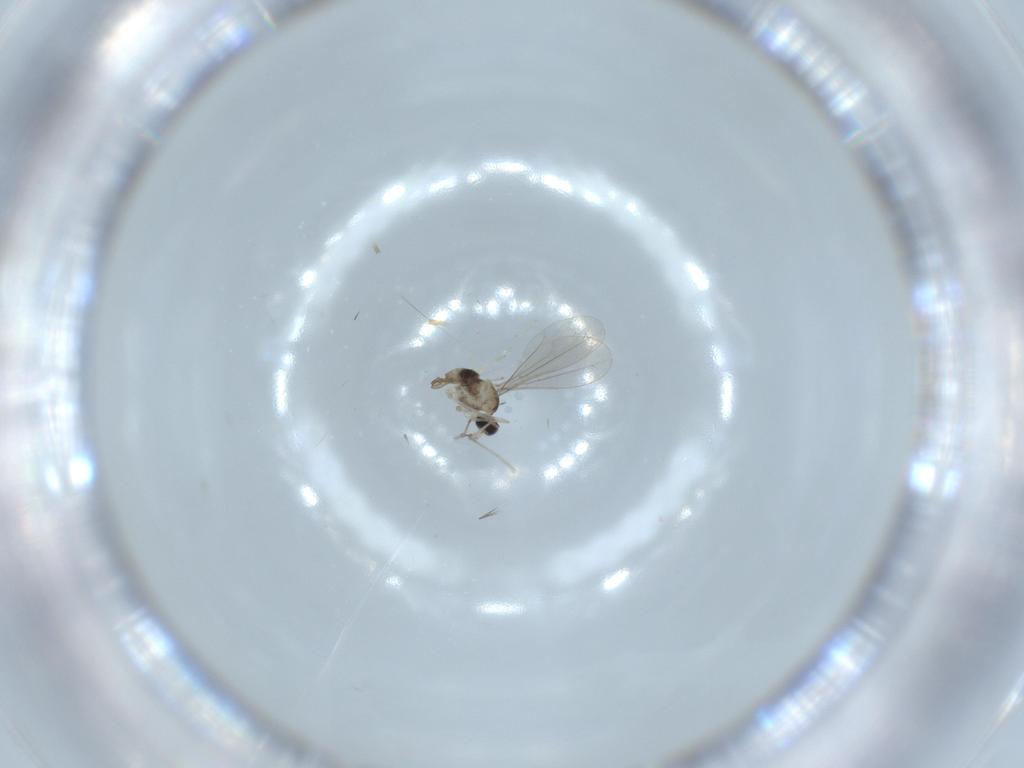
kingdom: Animalia
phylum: Arthropoda
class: Insecta
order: Diptera
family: Cecidomyiidae
